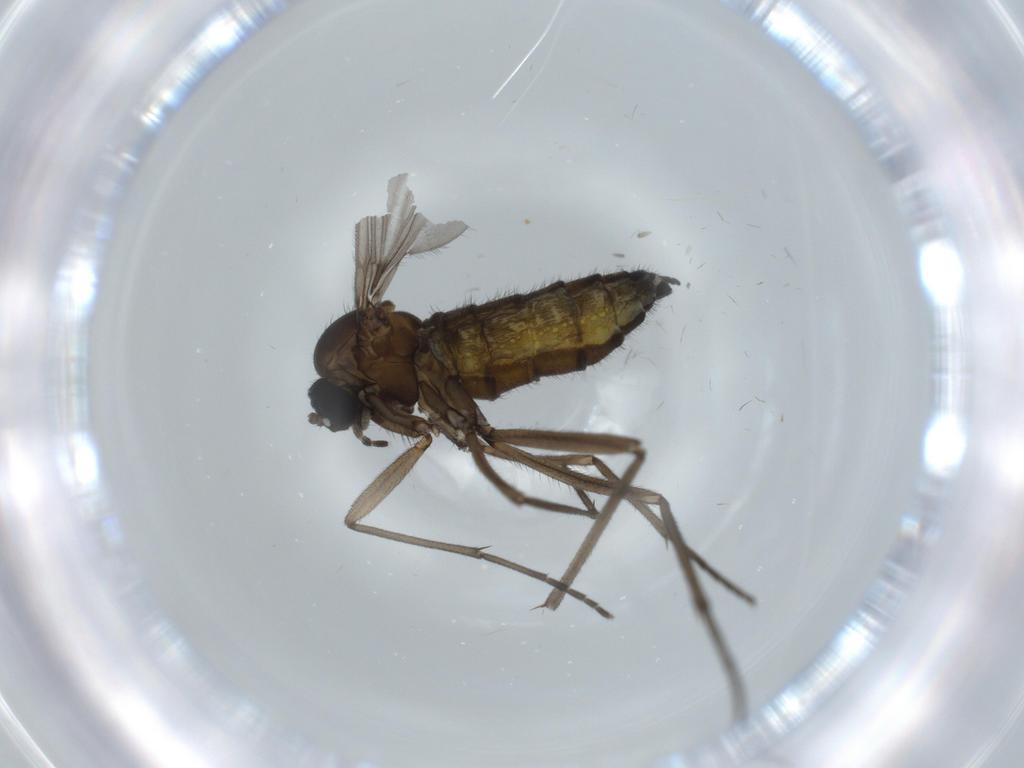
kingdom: Animalia
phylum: Arthropoda
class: Insecta
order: Diptera
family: Sciaridae
